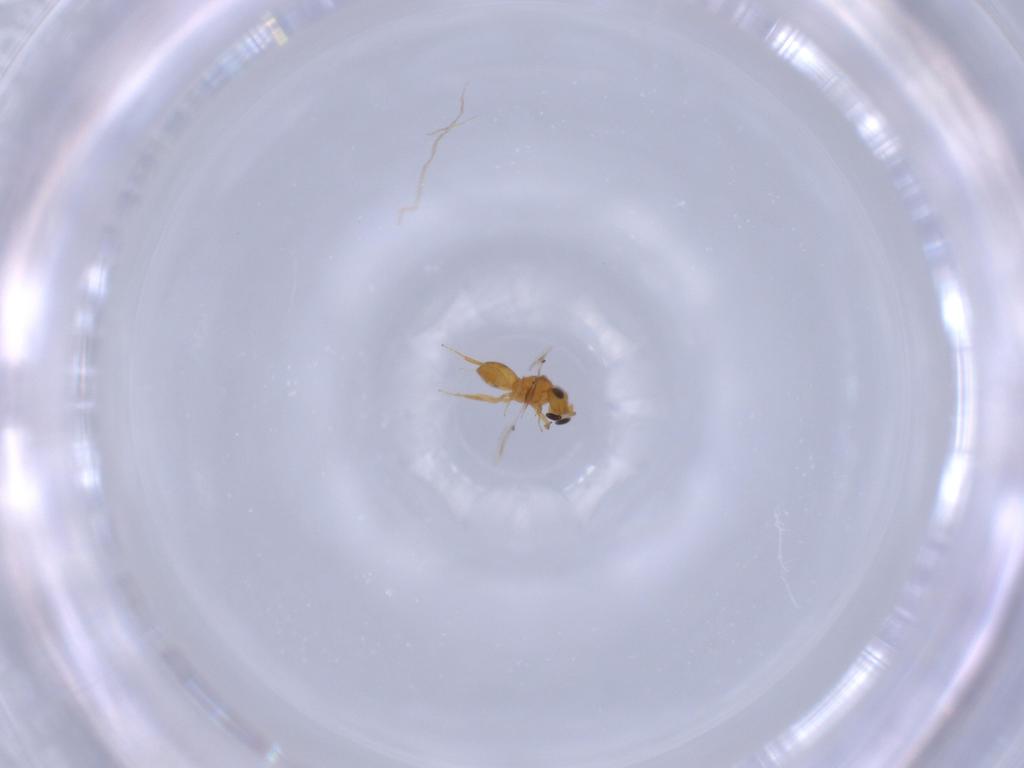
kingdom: Animalia
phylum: Arthropoda
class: Insecta
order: Hymenoptera
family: Scelionidae
